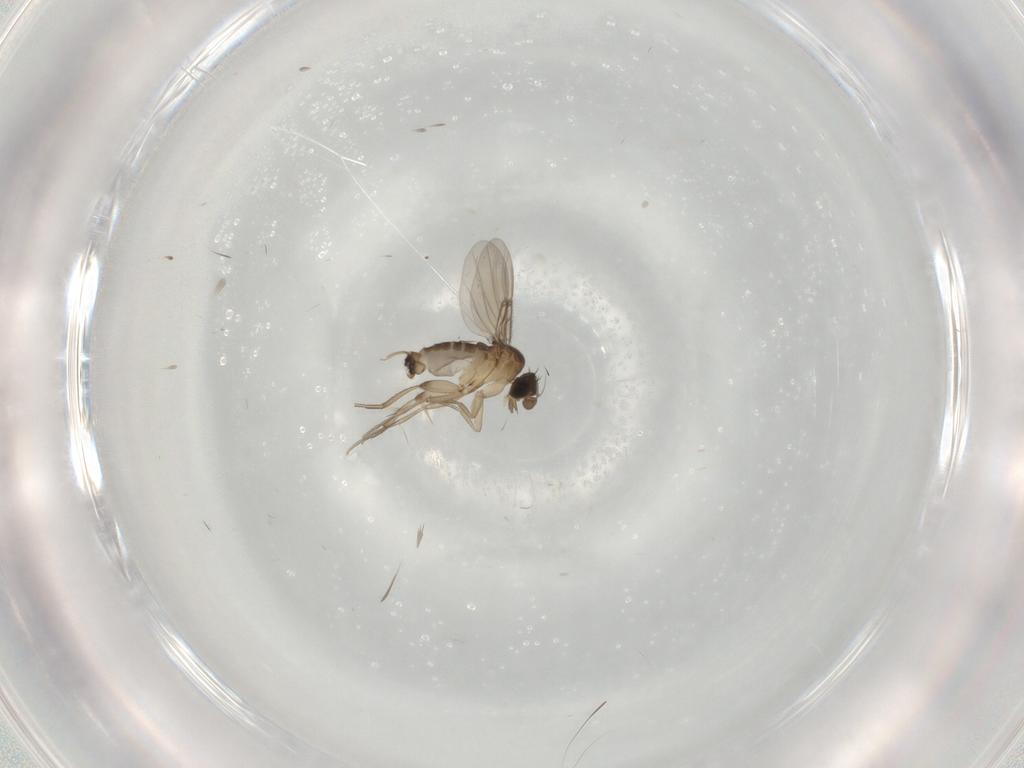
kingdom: Animalia
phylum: Arthropoda
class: Insecta
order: Diptera
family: Phoridae
